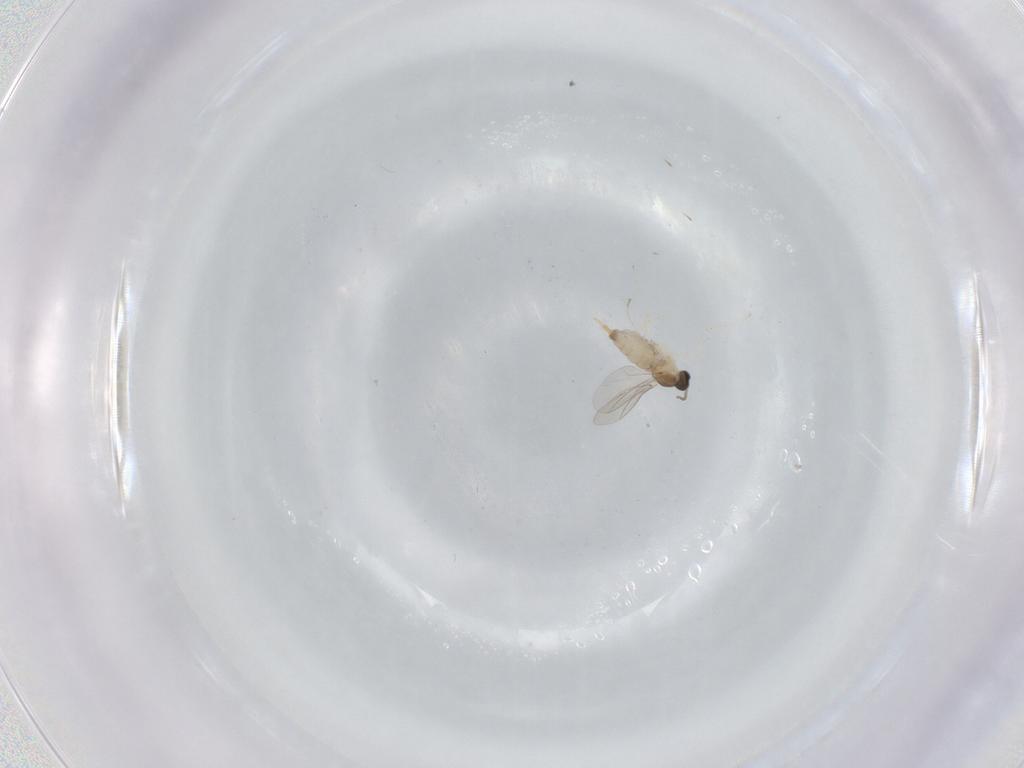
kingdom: Animalia
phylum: Arthropoda
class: Insecta
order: Diptera
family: Cecidomyiidae
